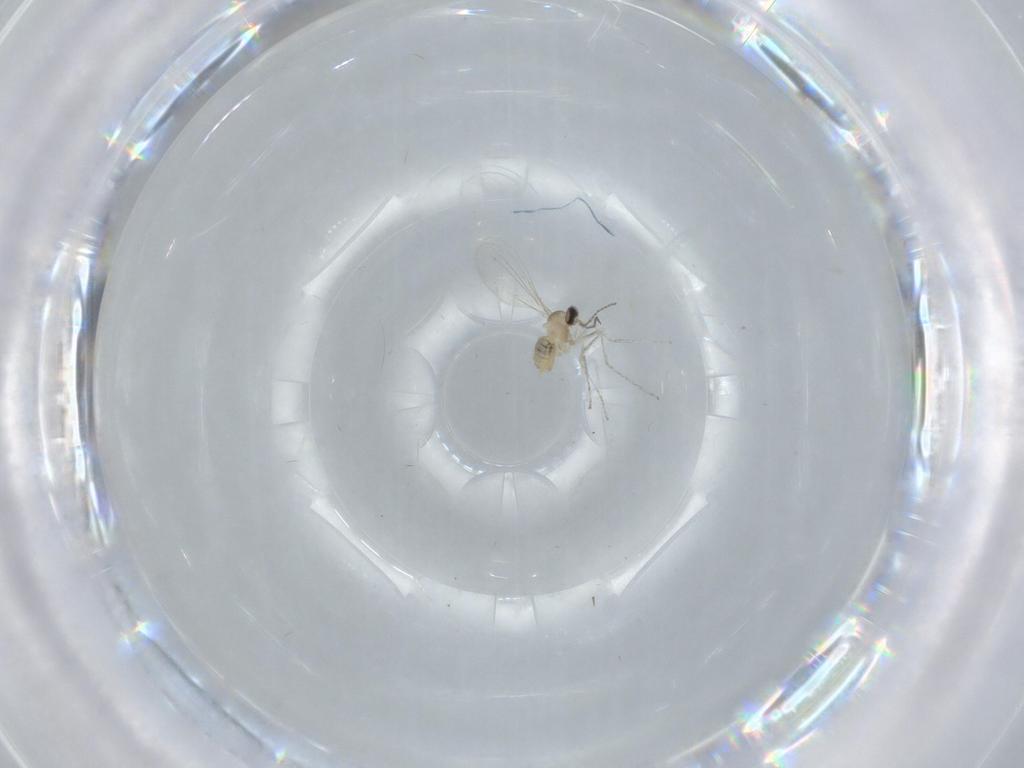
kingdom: Animalia
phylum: Arthropoda
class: Insecta
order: Diptera
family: Cecidomyiidae
